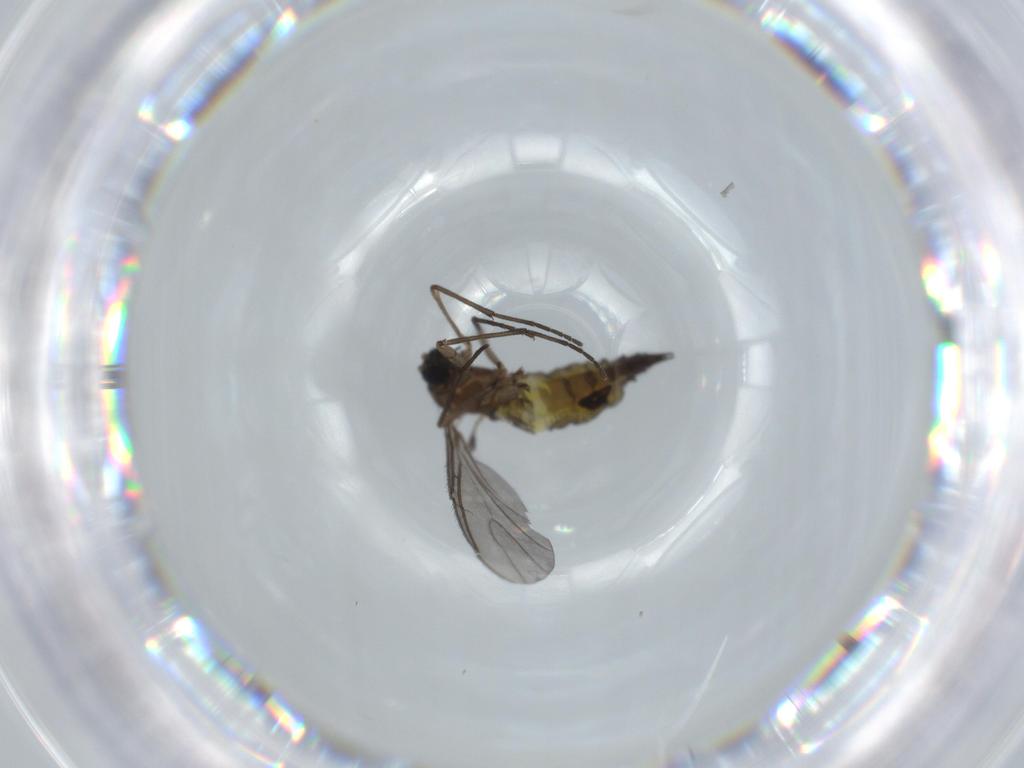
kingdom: Animalia
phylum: Arthropoda
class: Insecta
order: Diptera
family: Sciaridae
